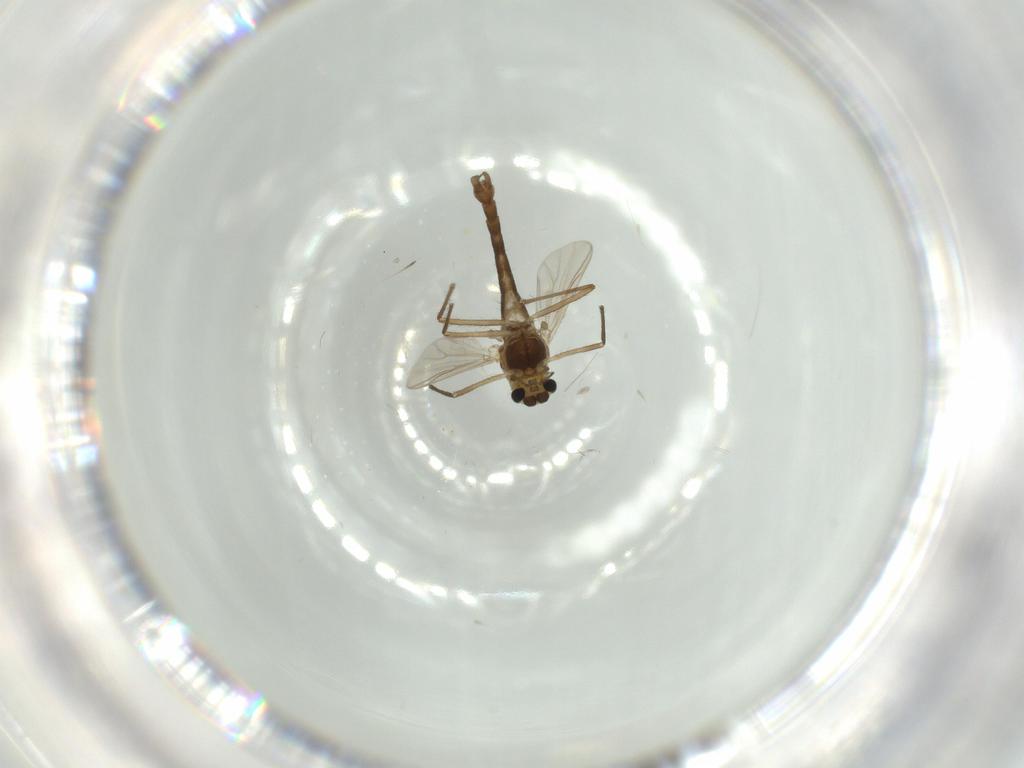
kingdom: Animalia
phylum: Arthropoda
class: Insecta
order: Diptera
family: Chironomidae
